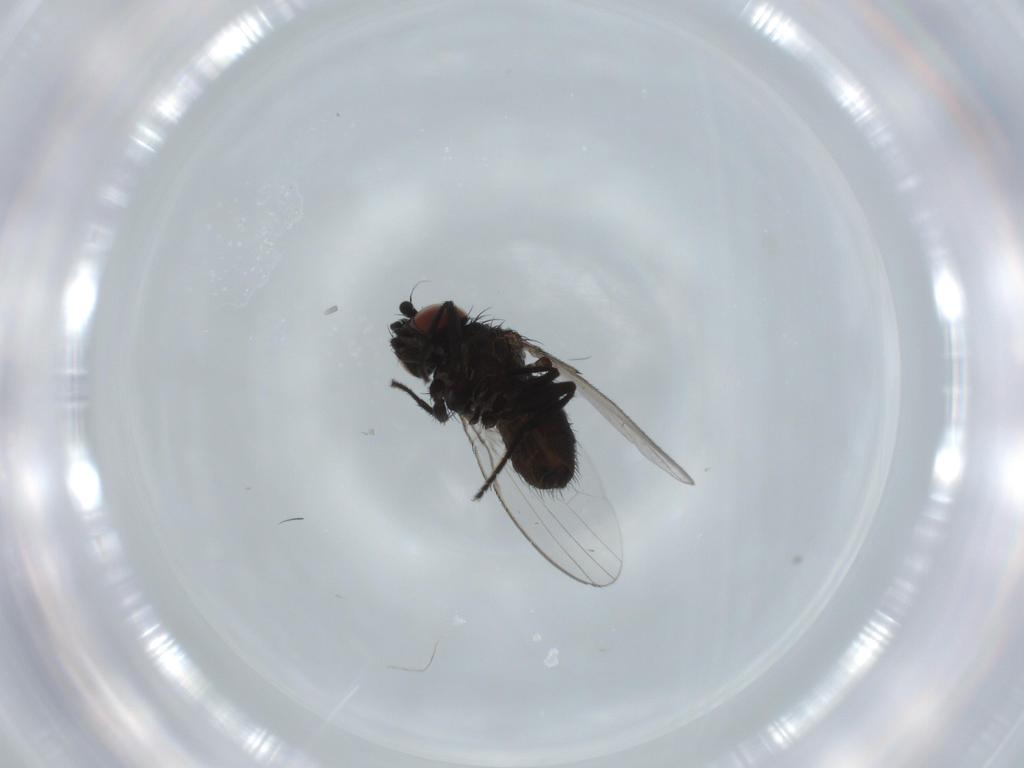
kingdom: Animalia
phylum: Arthropoda
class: Insecta
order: Diptera
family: Milichiidae
